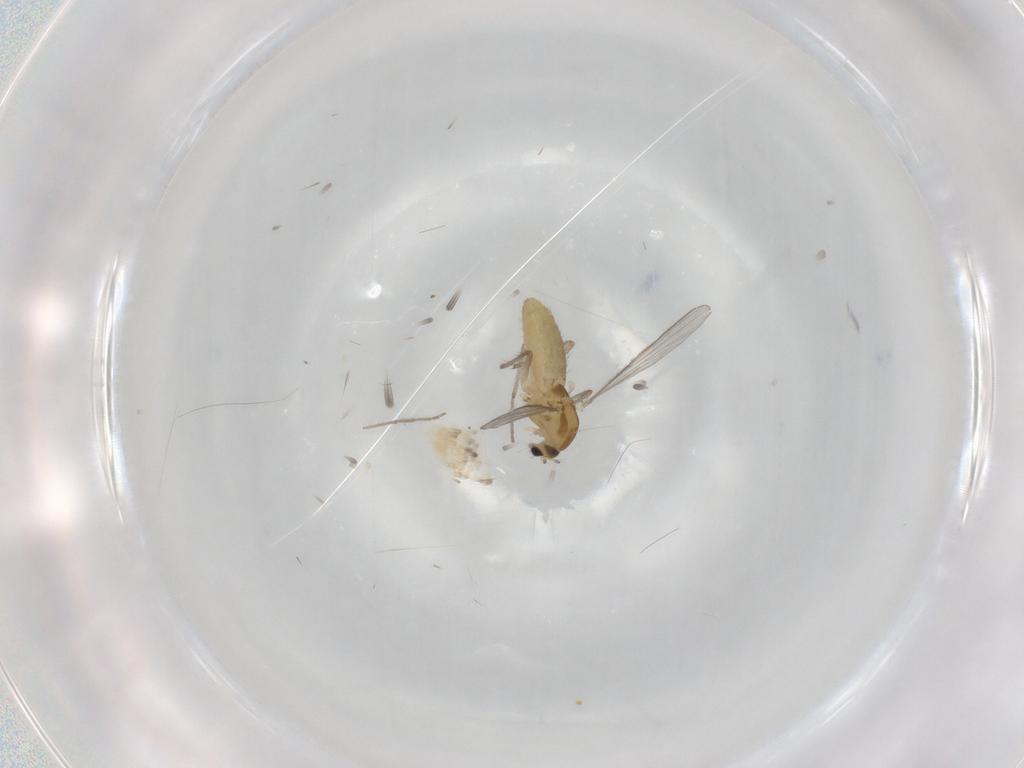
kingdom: Animalia
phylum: Arthropoda
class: Insecta
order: Diptera
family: Chironomidae
